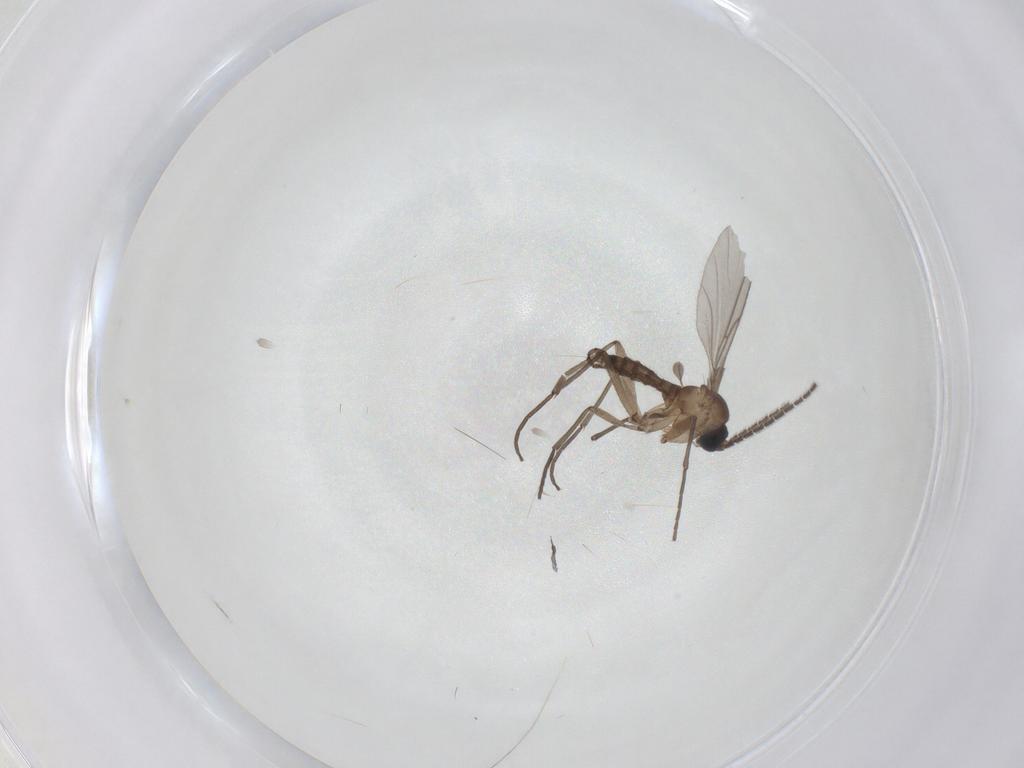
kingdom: Animalia
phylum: Arthropoda
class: Insecta
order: Diptera
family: Sciaridae
